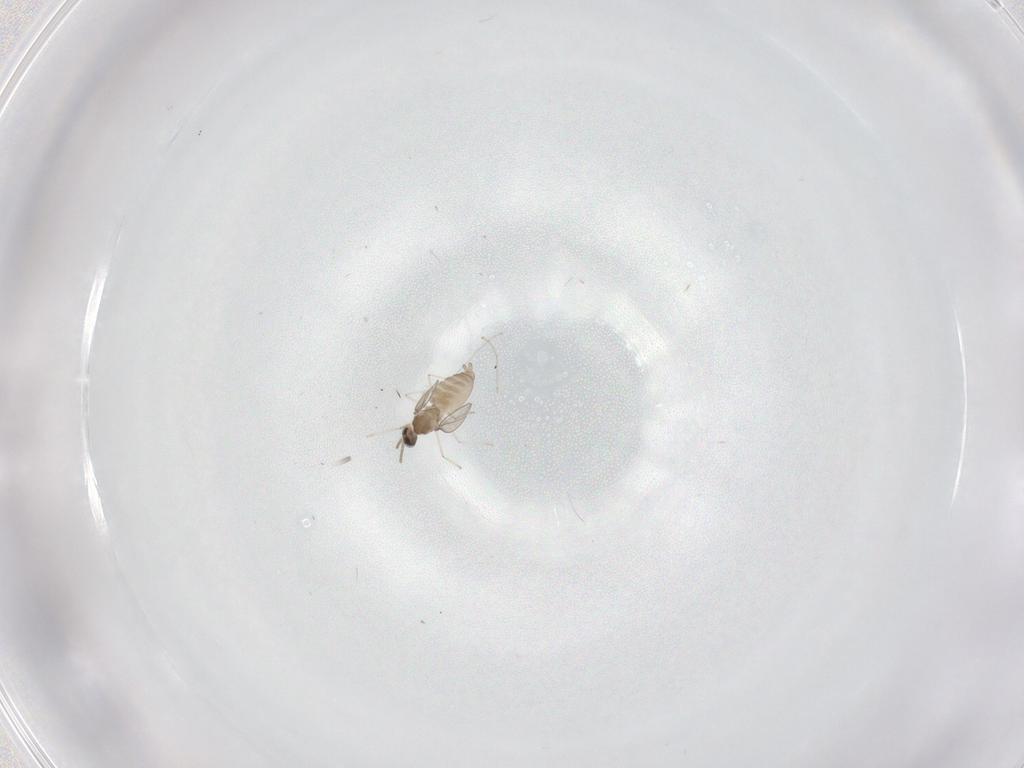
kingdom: Animalia
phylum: Arthropoda
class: Insecta
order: Diptera
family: Cecidomyiidae
